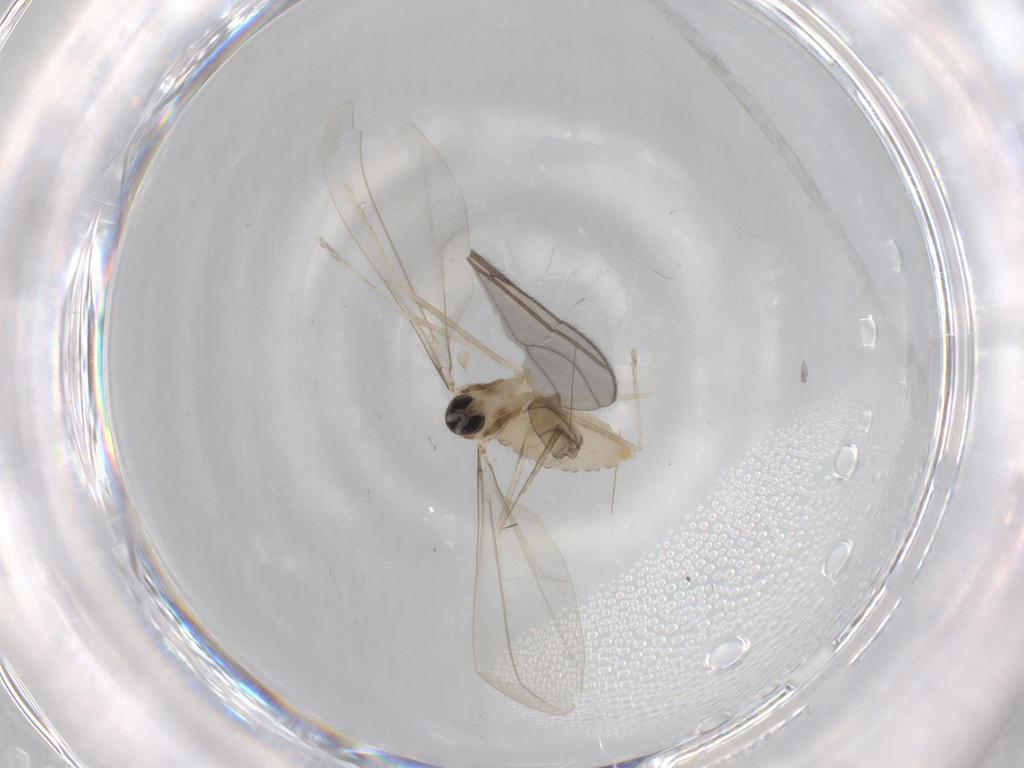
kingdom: Animalia
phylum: Arthropoda
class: Insecta
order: Diptera
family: Cecidomyiidae
